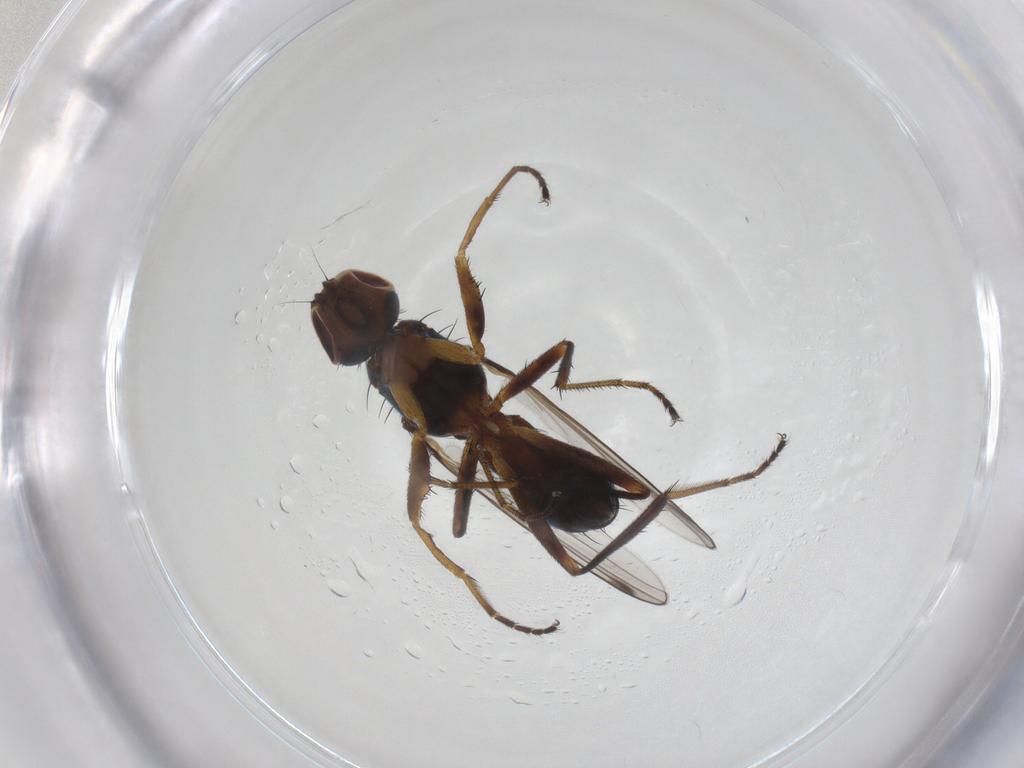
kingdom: Animalia
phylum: Arthropoda
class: Insecta
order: Diptera
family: Sepsidae
